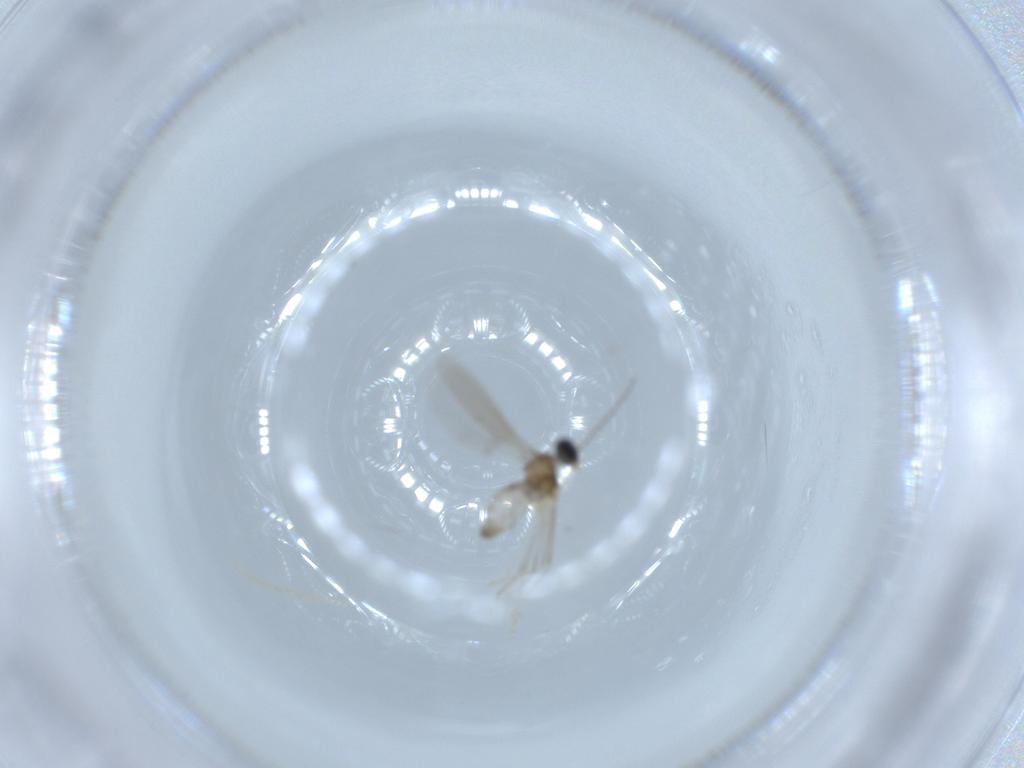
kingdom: Animalia
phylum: Arthropoda
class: Insecta
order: Diptera
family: Cecidomyiidae
